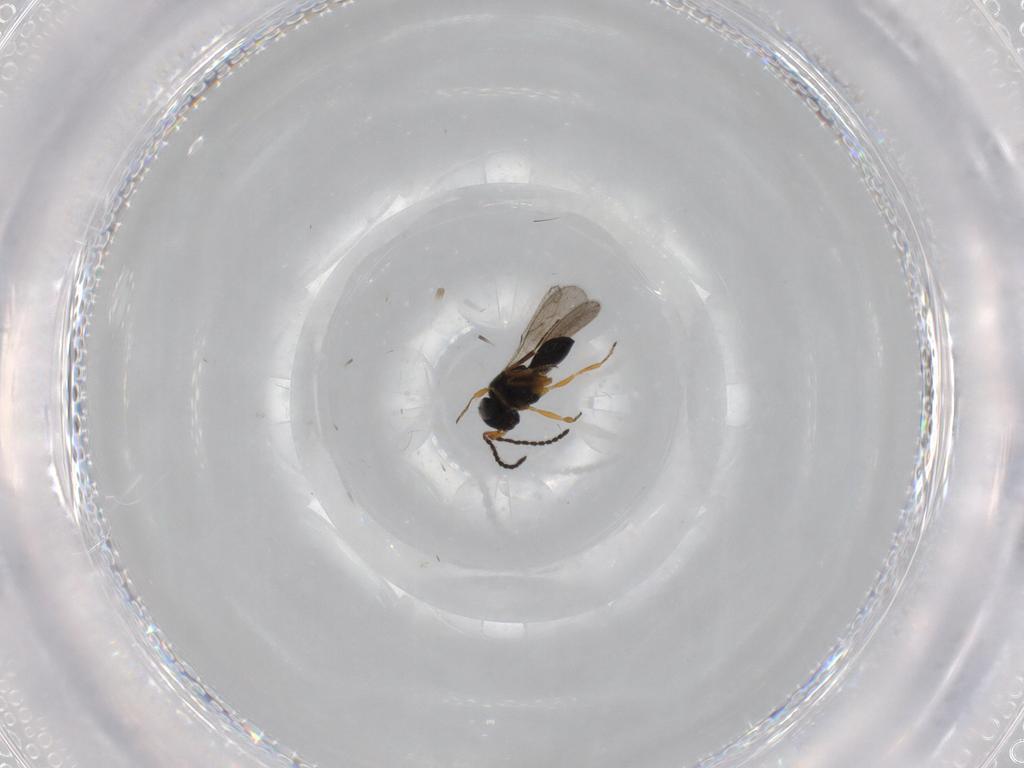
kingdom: Animalia
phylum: Arthropoda
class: Insecta
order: Hymenoptera
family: Scelionidae
